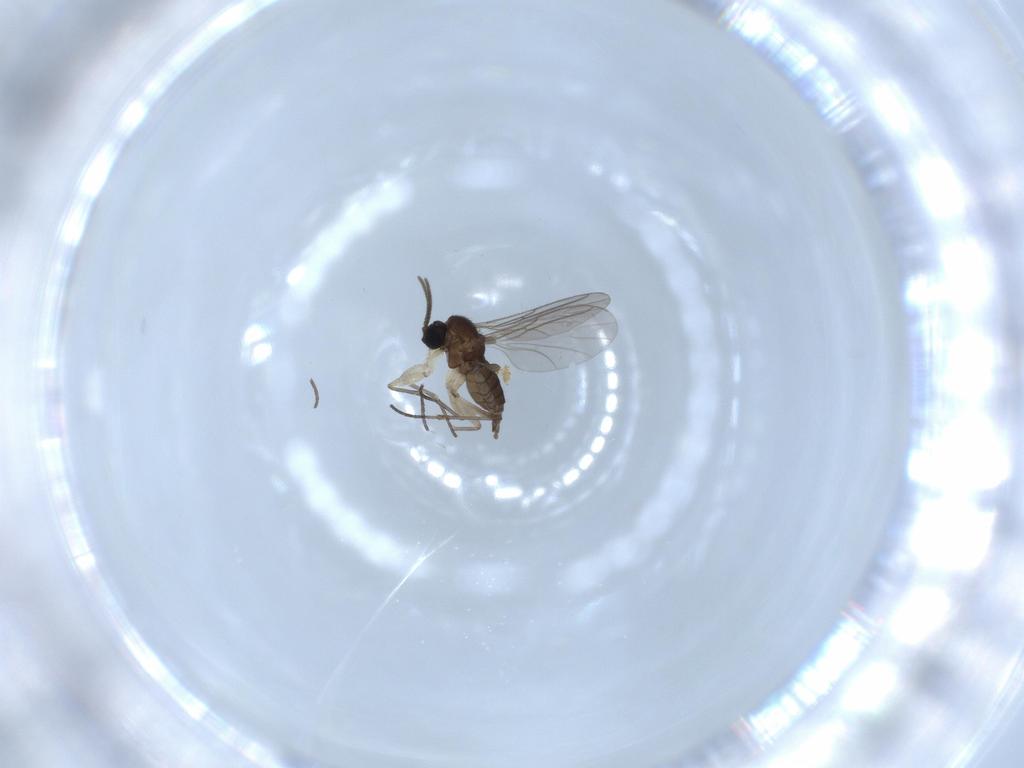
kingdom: Animalia
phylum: Arthropoda
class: Insecta
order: Diptera
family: Sciaridae
